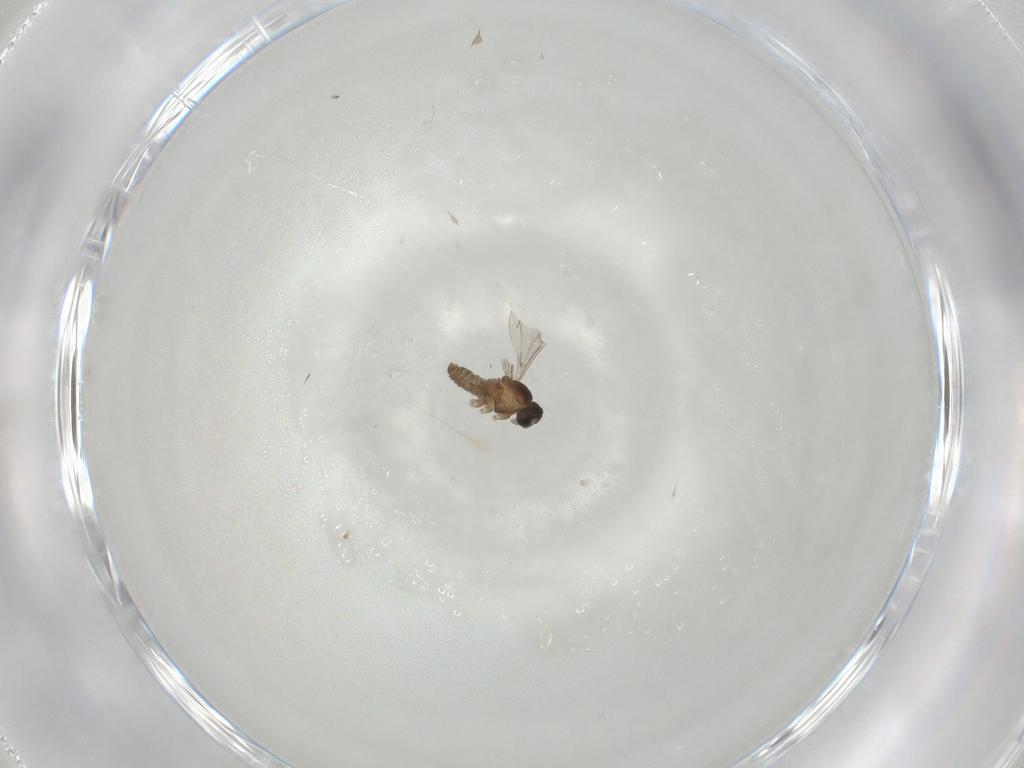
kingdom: Animalia
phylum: Arthropoda
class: Insecta
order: Diptera
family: Cecidomyiidae
